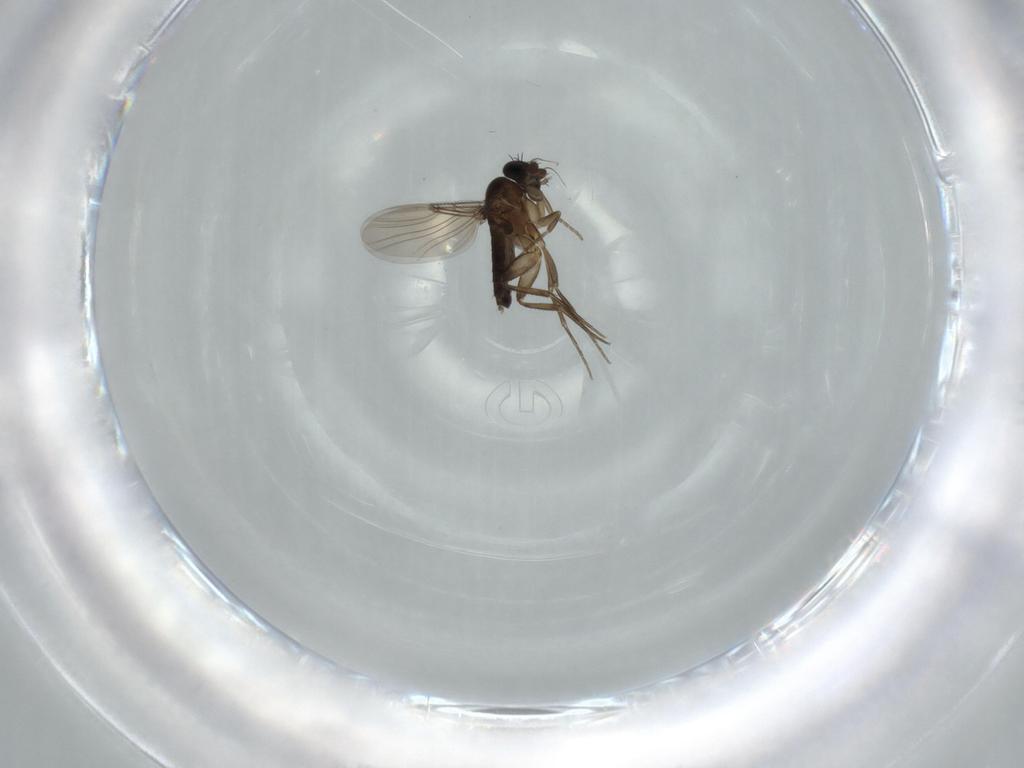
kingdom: Animalia
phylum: Arthropoda
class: Insecta
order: Diptera
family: Phoridae
